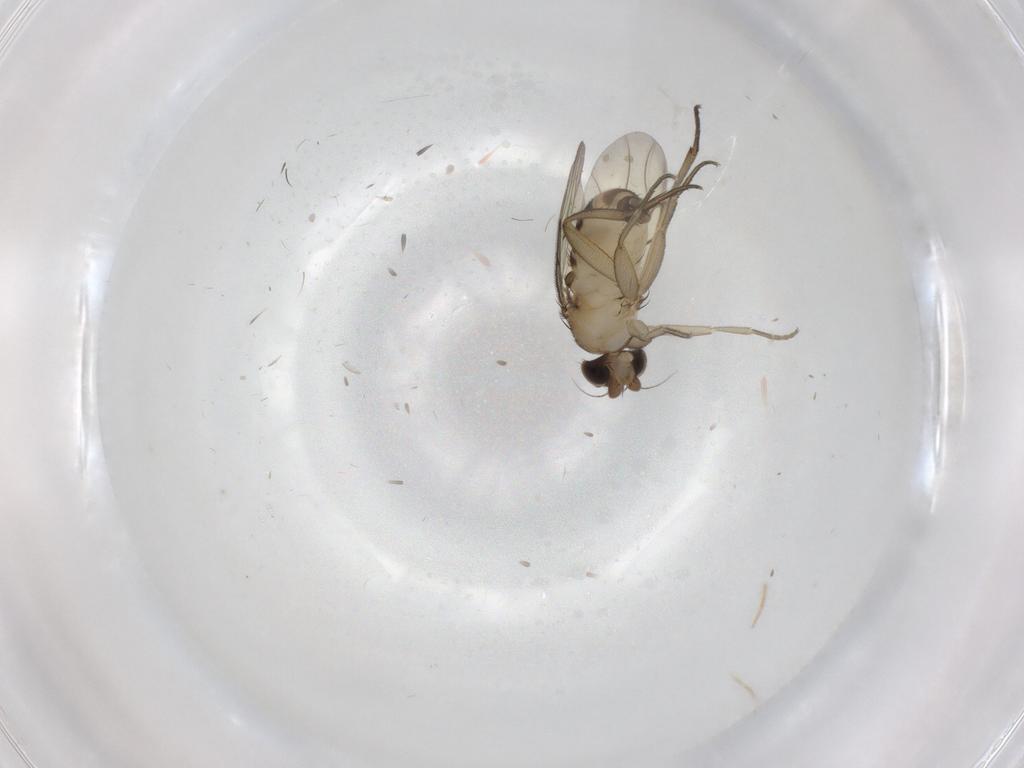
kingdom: Animalia
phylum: Arthropoda
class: Insecta
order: Diptera
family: Chironomidae
